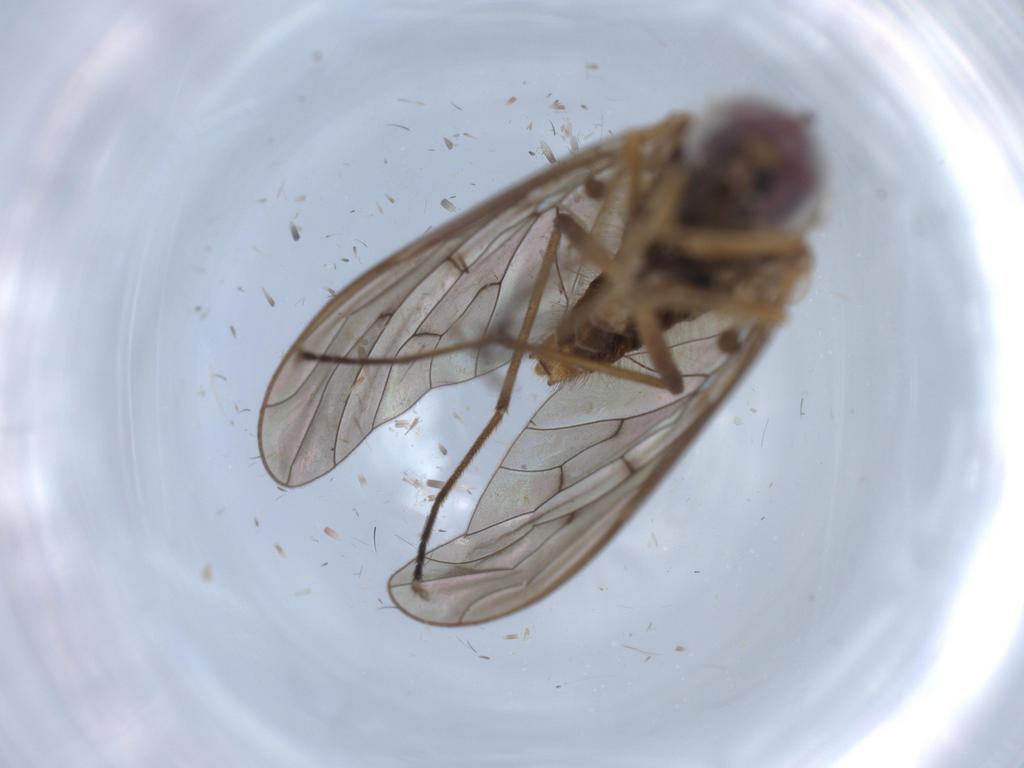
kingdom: Animalia
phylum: Arthropoda
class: Insecta
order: Diptera
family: Bombyliidae
